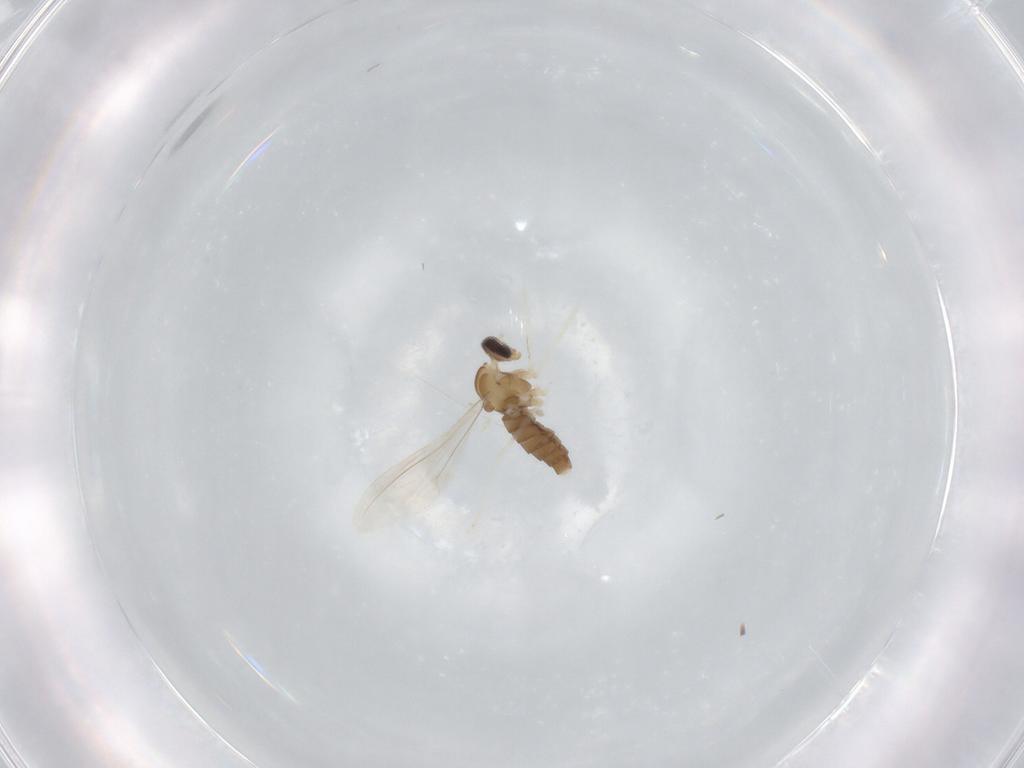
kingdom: Animalia
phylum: Arthropoda
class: Insecta
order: Diptera
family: Cecidomyiidae
